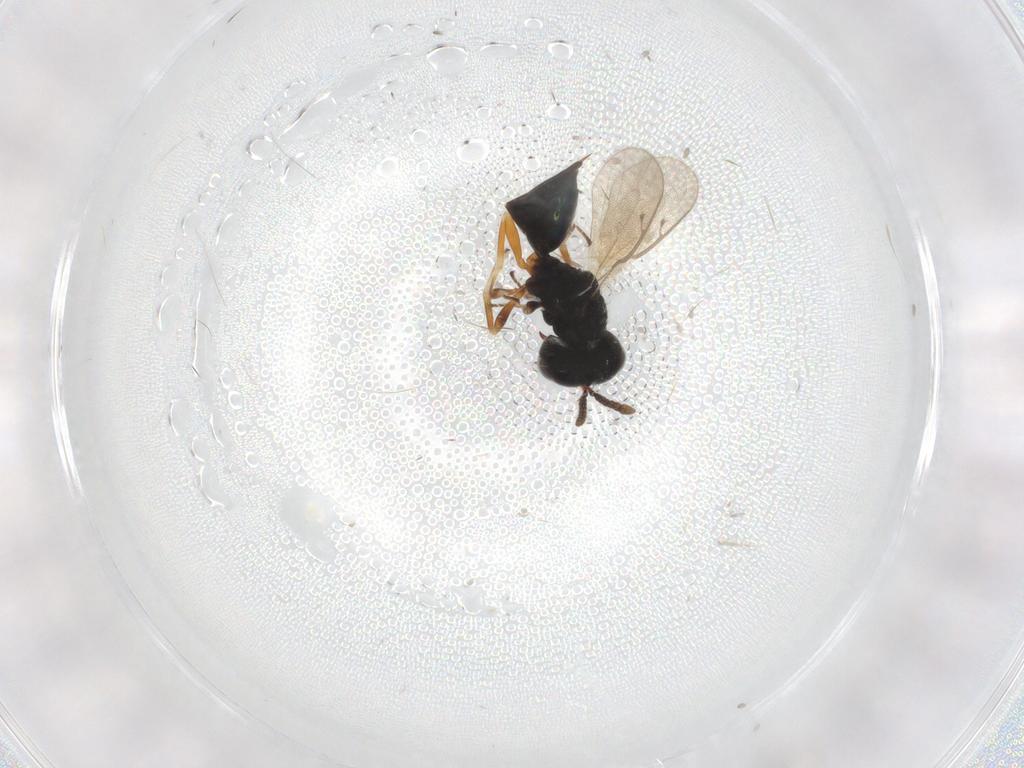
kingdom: Animalia
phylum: Arthropoda
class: Insecta
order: Hymenoptera
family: Pteromalidae
